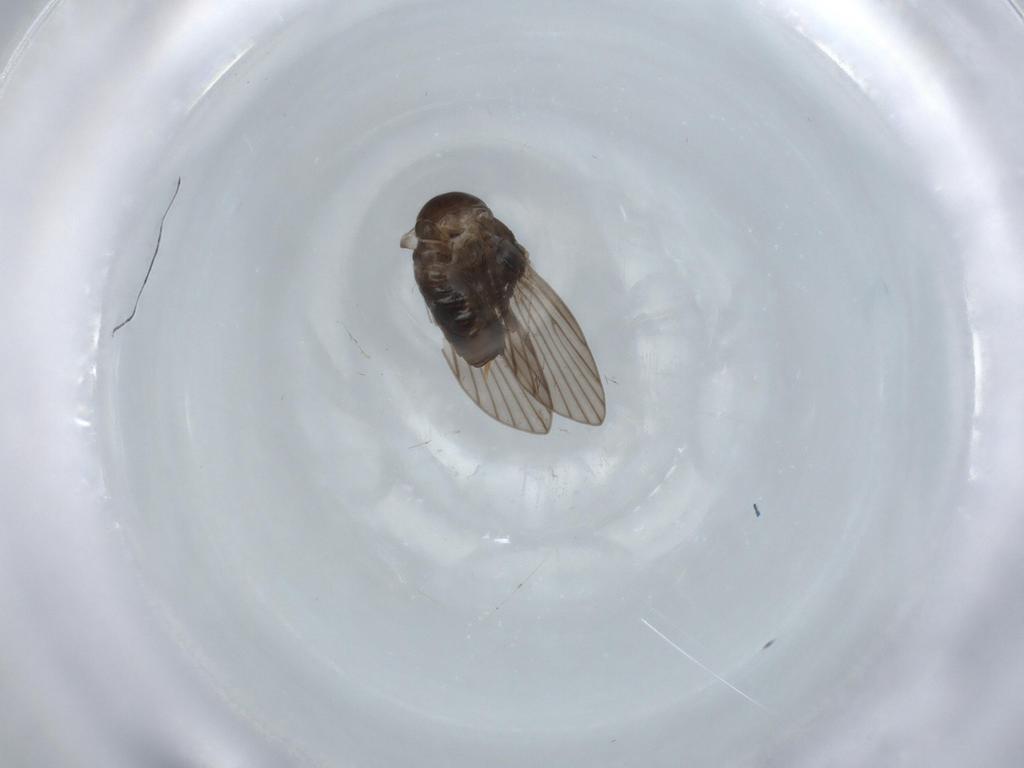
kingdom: Animalia
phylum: Arthropoda
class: Insecta
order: Diptera
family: Psychodidae
